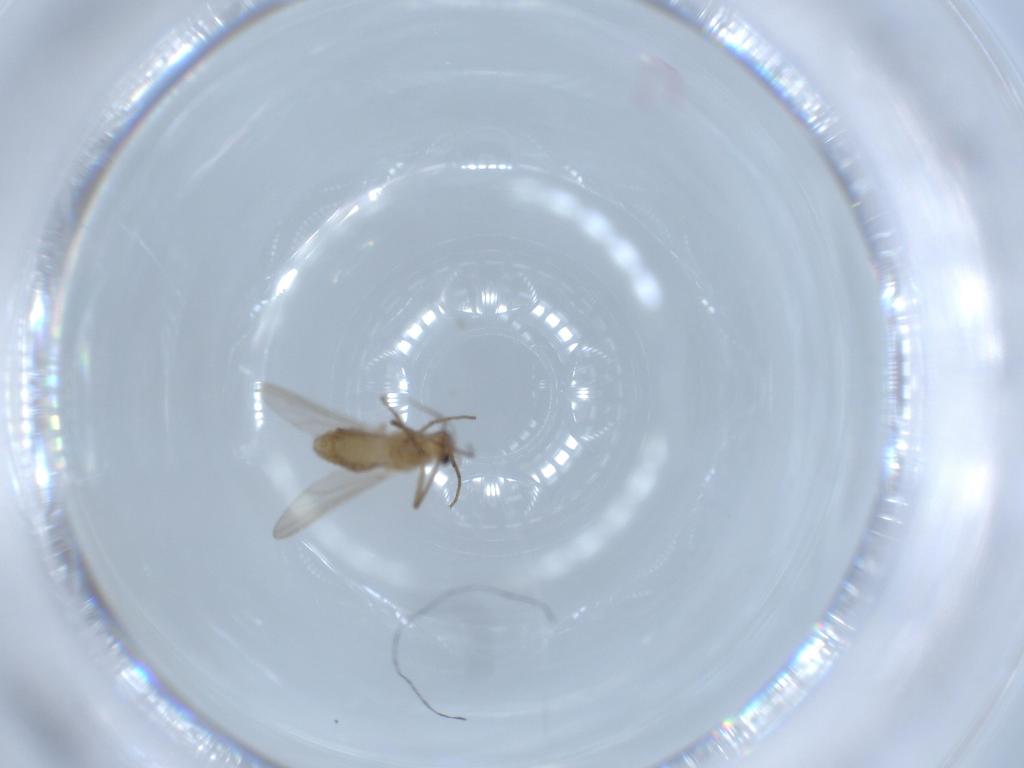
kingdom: Animalia
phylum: Arthropoda
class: Insecta
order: Diptera
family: Chironomidae
